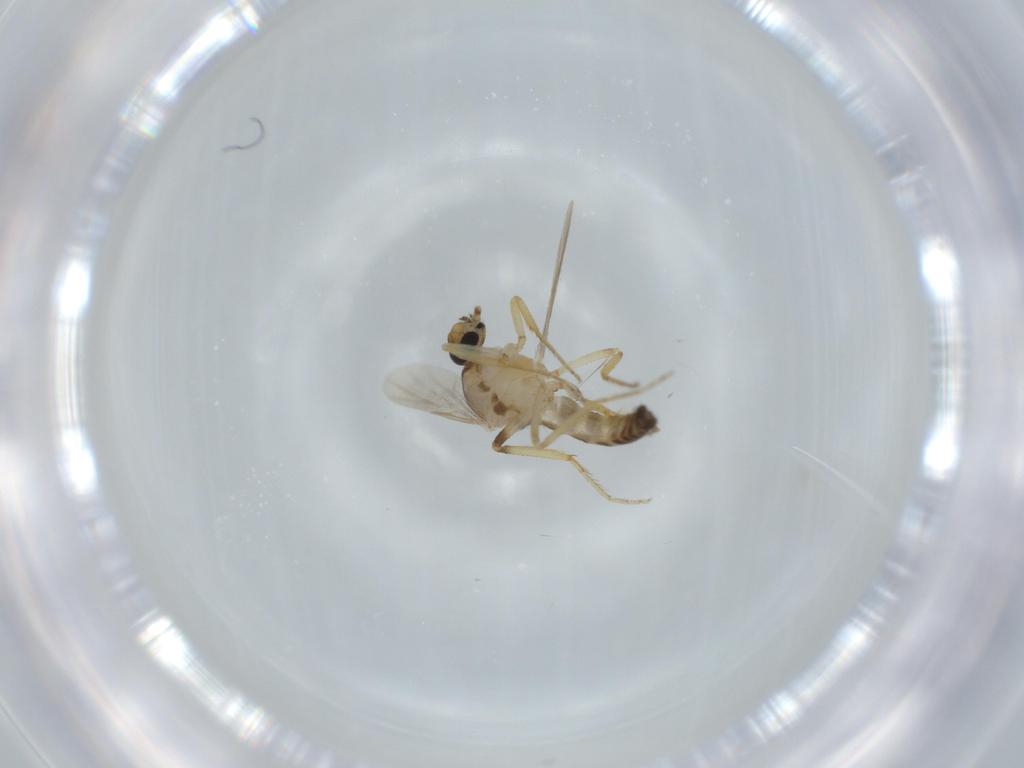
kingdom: Animalia
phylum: Arthropoda
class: Insecta
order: Diptera
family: Ceratopogonidae
